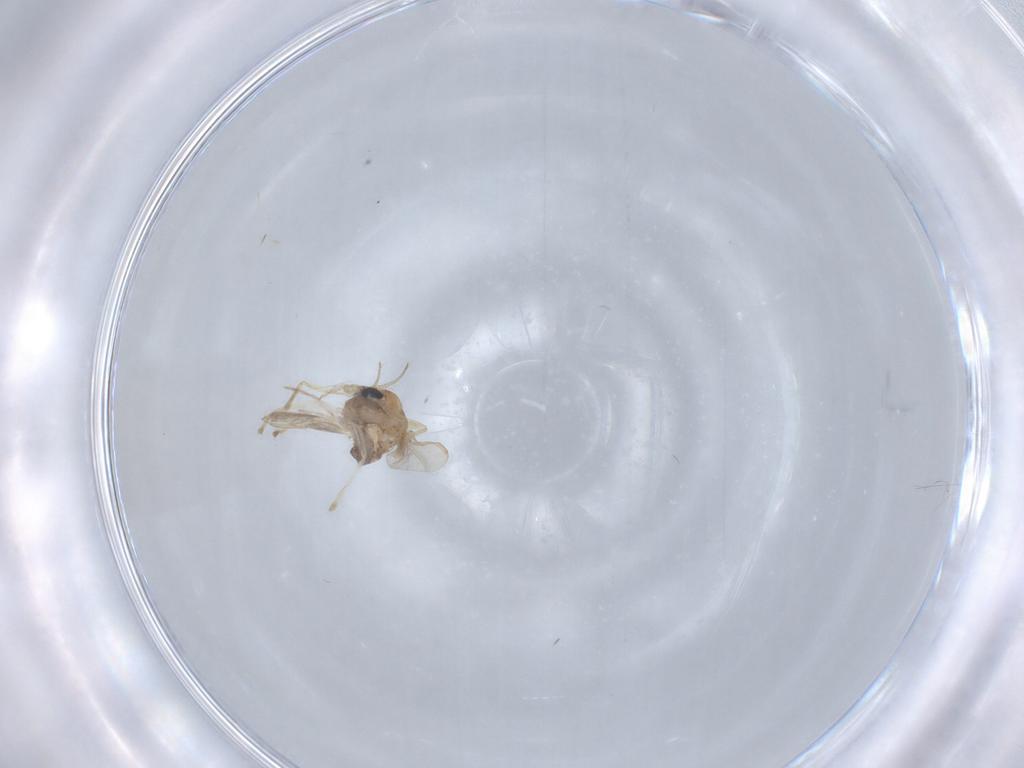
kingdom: Animalia
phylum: Arthropoda
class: Insecta
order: Diptera
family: Chironomidae
